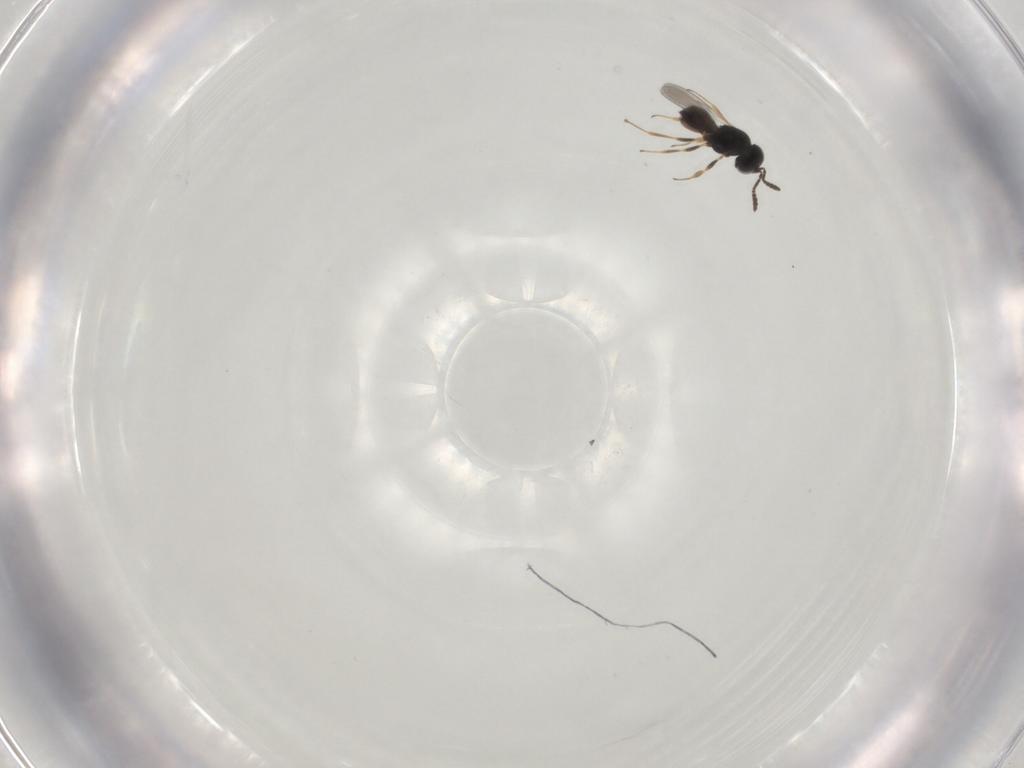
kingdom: Animalia
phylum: Arthropoda
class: Insecta
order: Hymenoptera
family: Scelionidae
